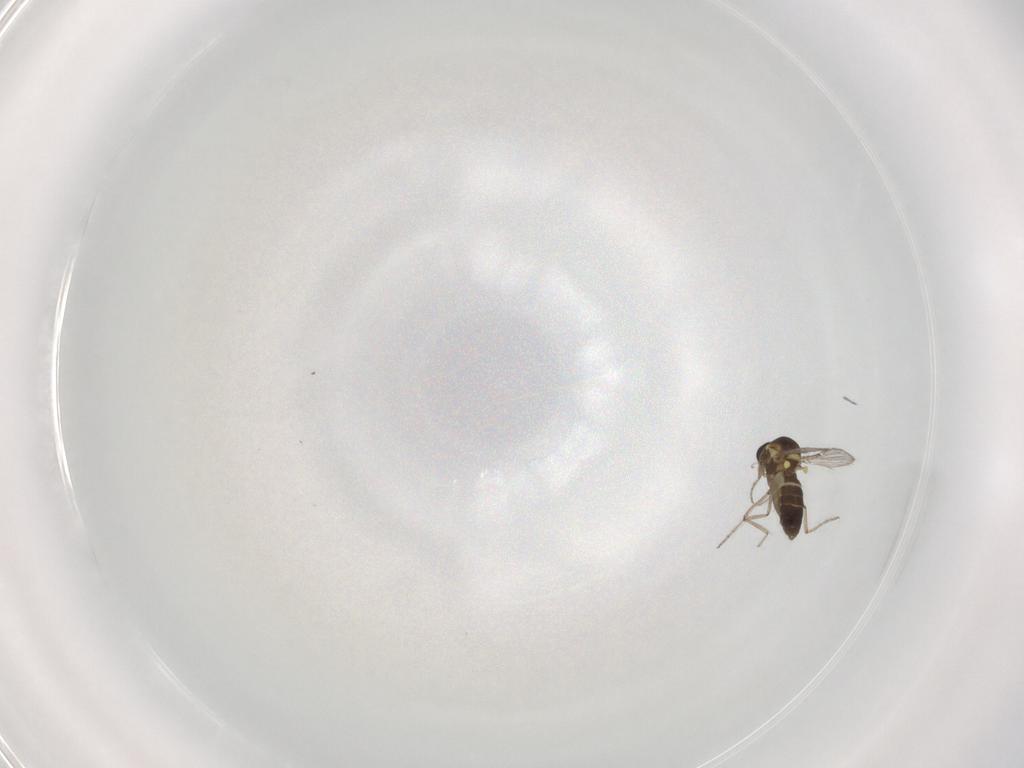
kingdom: Animalia
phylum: Arthropoda
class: Insecta
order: Diptera
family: Ceratopogonidae
